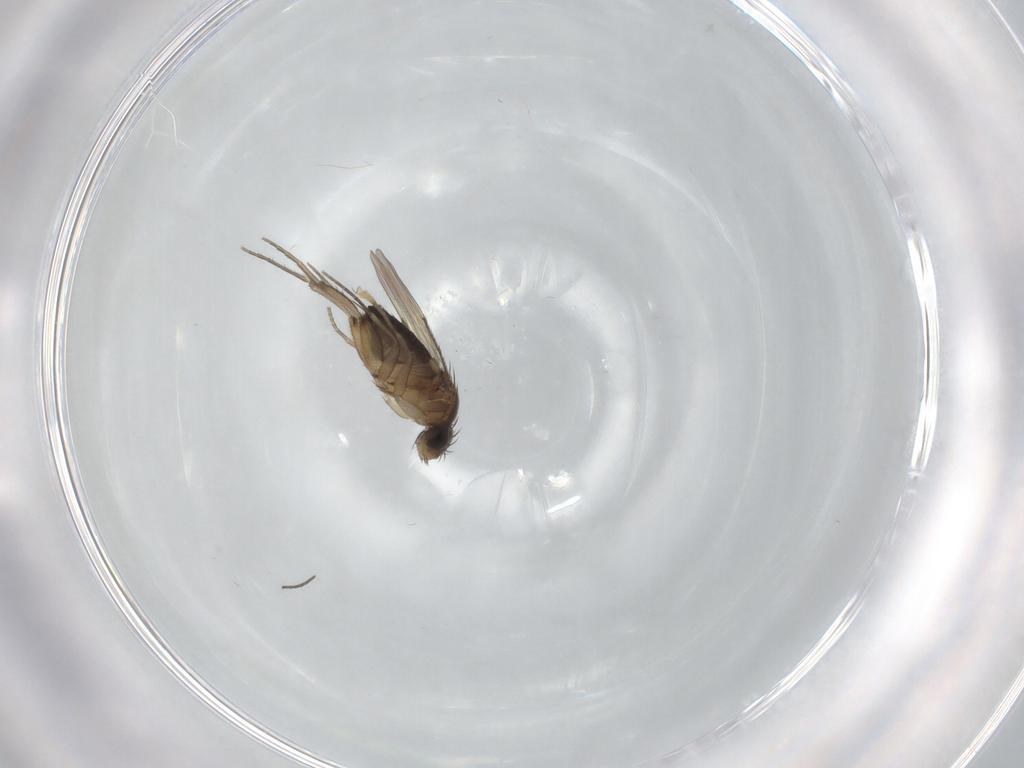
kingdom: Animalia
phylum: Arthropoda
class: Insecta
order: Diptera
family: Sciaridae
